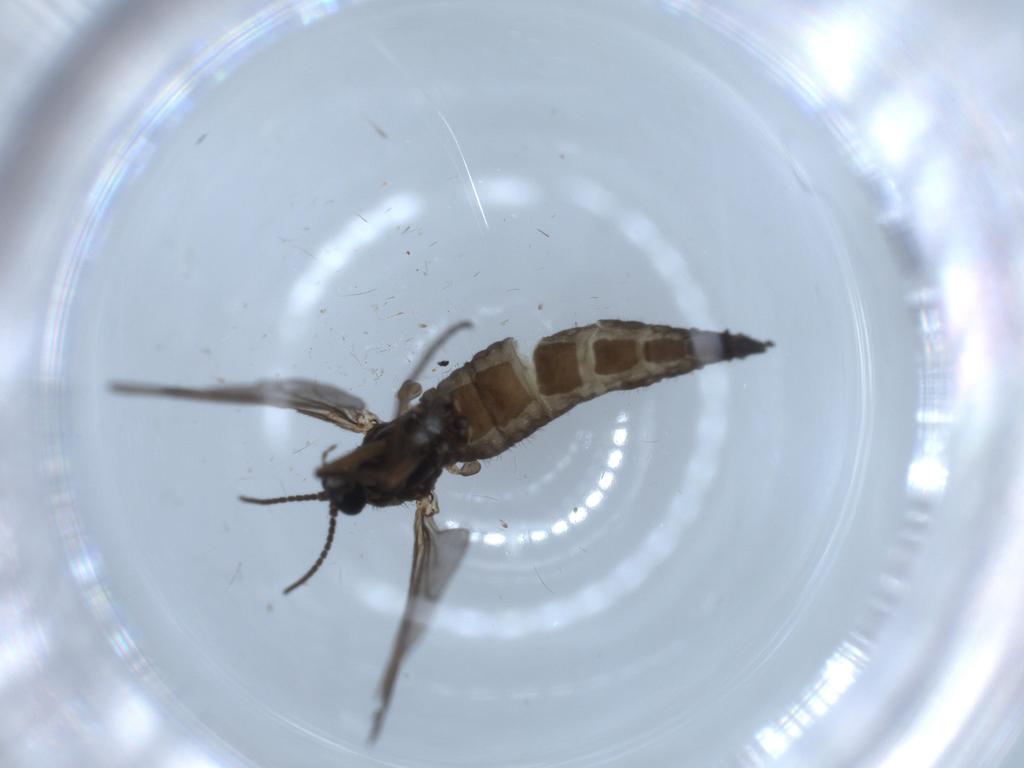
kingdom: Animalia
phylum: Arthropoda
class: Insecta
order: Diptera
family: Sciaridae
